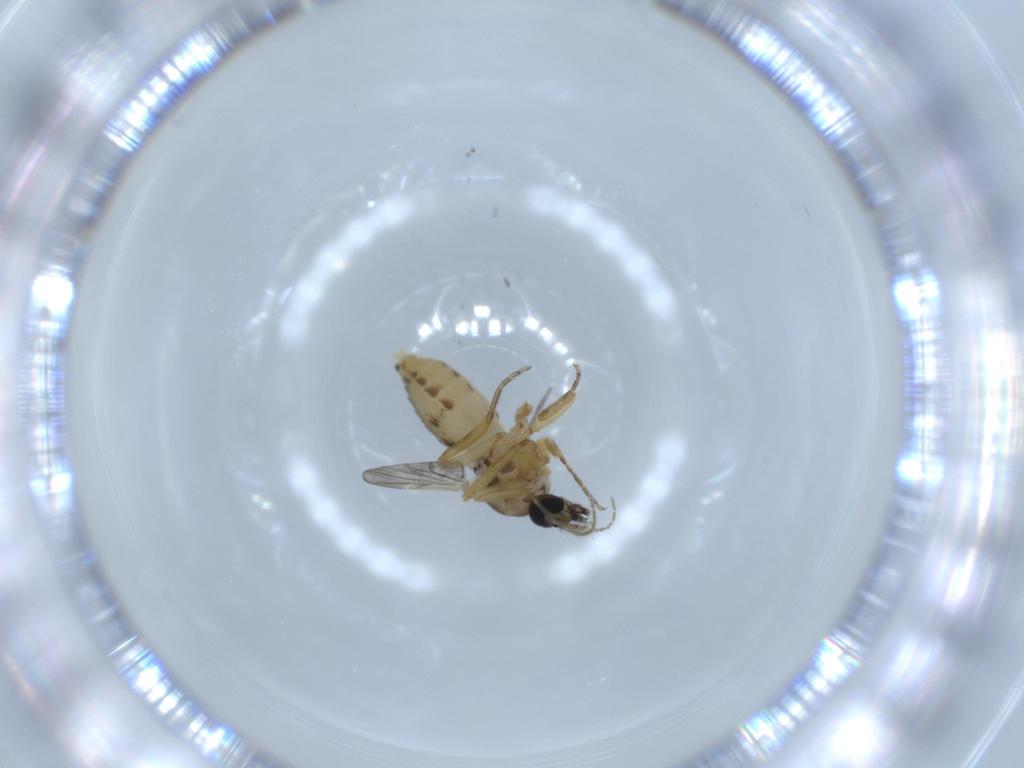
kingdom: Animalia
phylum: Arthropoda
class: Insecta
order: Diptera
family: Ceratopogonidae
